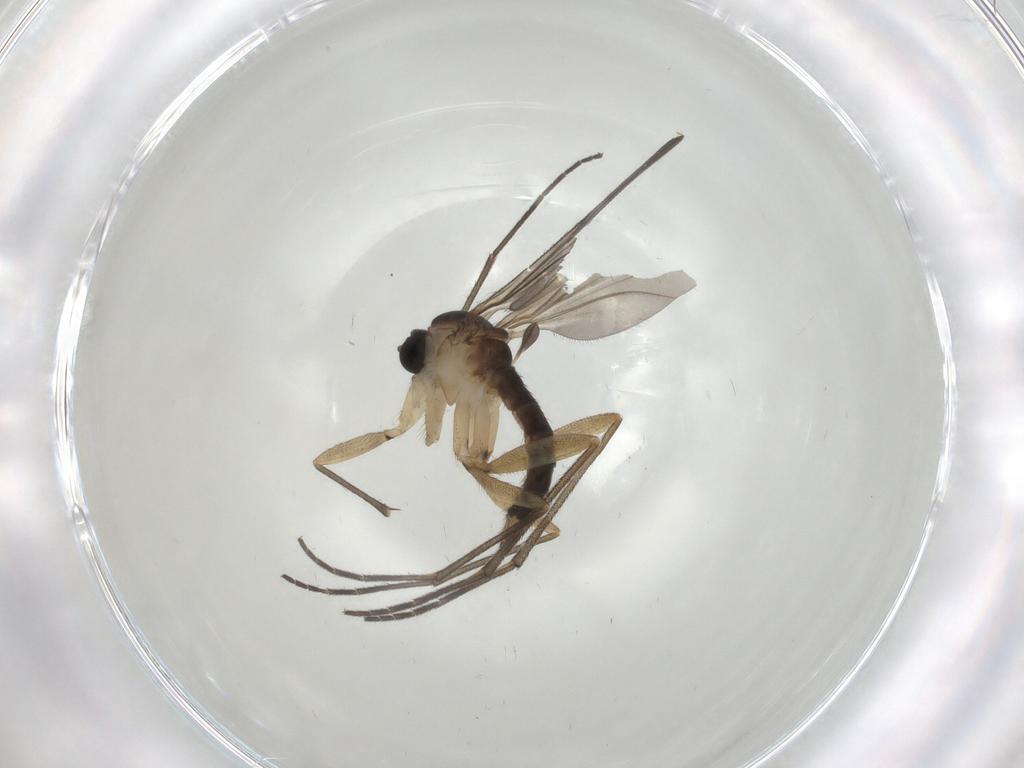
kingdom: Animalia
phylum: Arthropoda
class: Insecta
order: Diptera
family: Sciaridae
